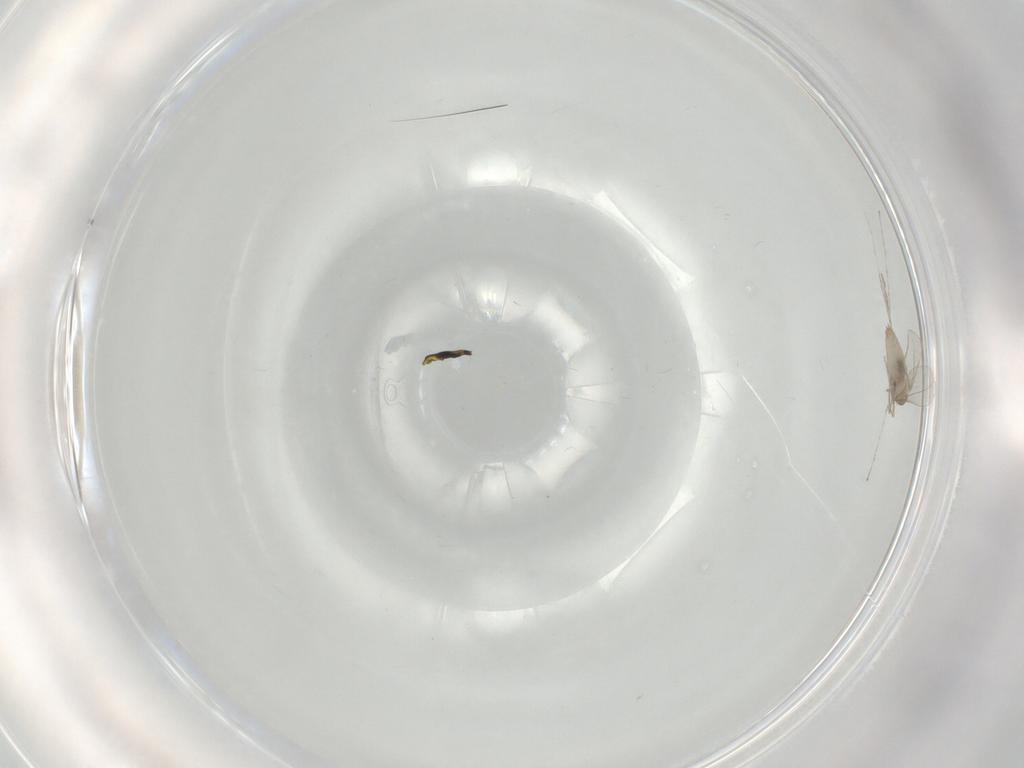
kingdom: Animalia
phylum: Arthropoda
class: Insecta
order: Diptera
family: Cecidomyiidae
